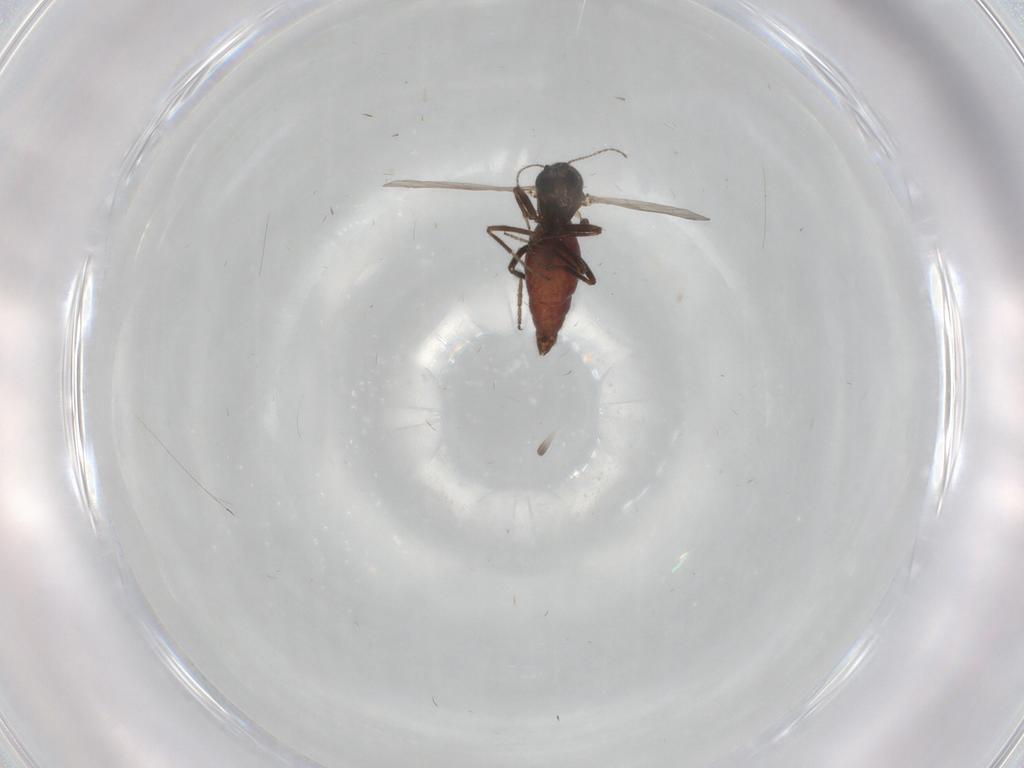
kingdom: Animalia
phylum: Arthropoda
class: Insecta
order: Diptera
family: Ceratopogonidae
